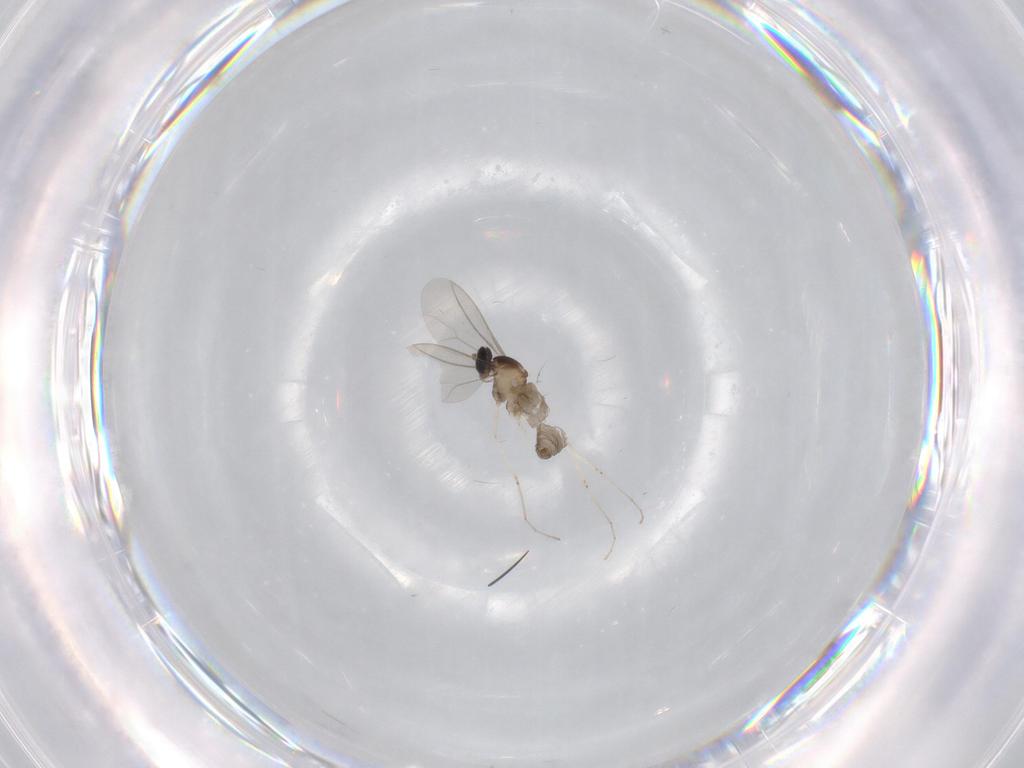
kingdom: Animalia
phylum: Arthropoda
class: Insecta
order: Diptera
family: Cecidomyiidae
